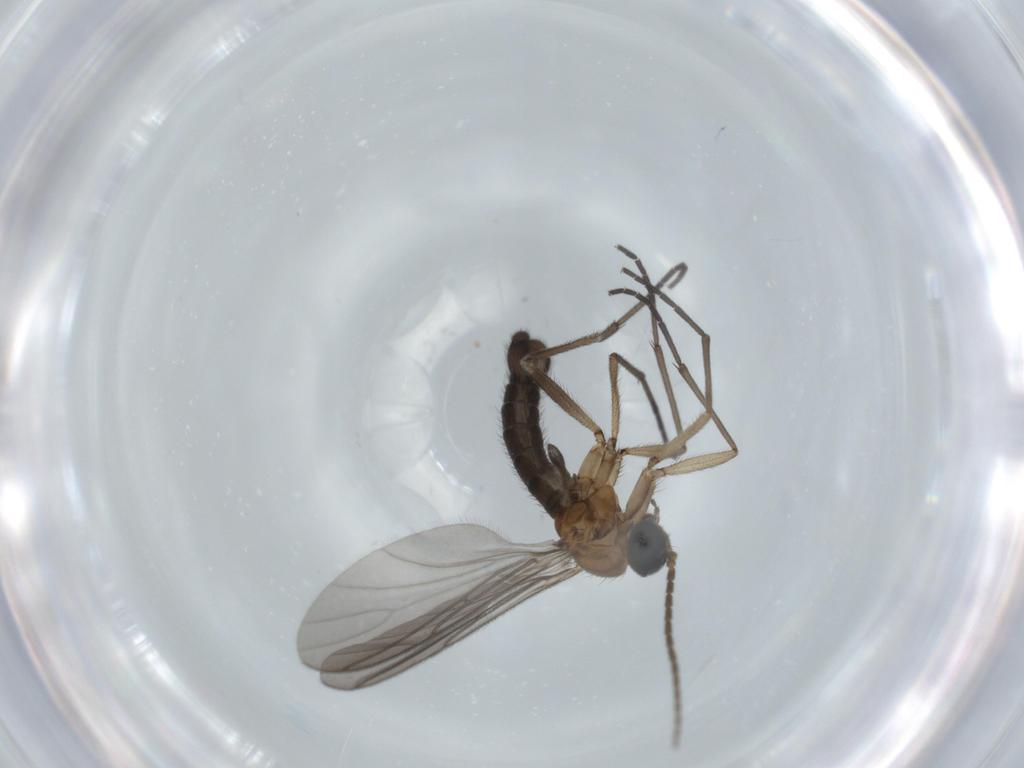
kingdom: Animalia
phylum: Arthropoda
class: Insecta
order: Diptera
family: Sciaridae
